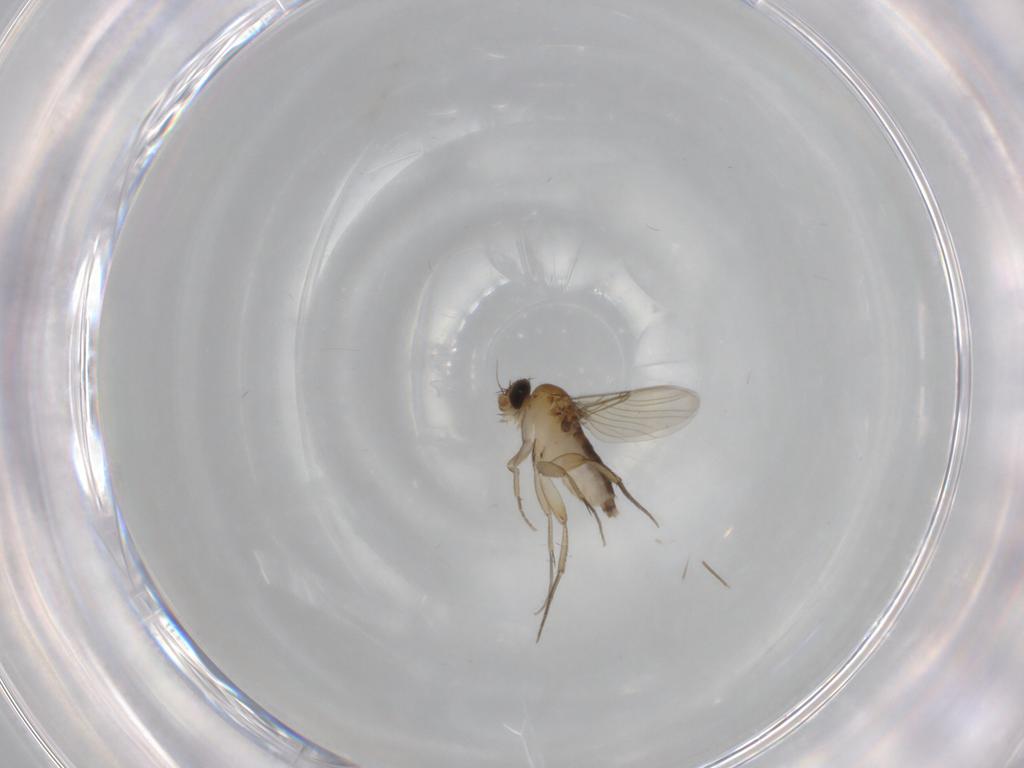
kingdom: Animalia
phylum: Arthropoda
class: Insecta
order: Diptera
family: Phoridae
